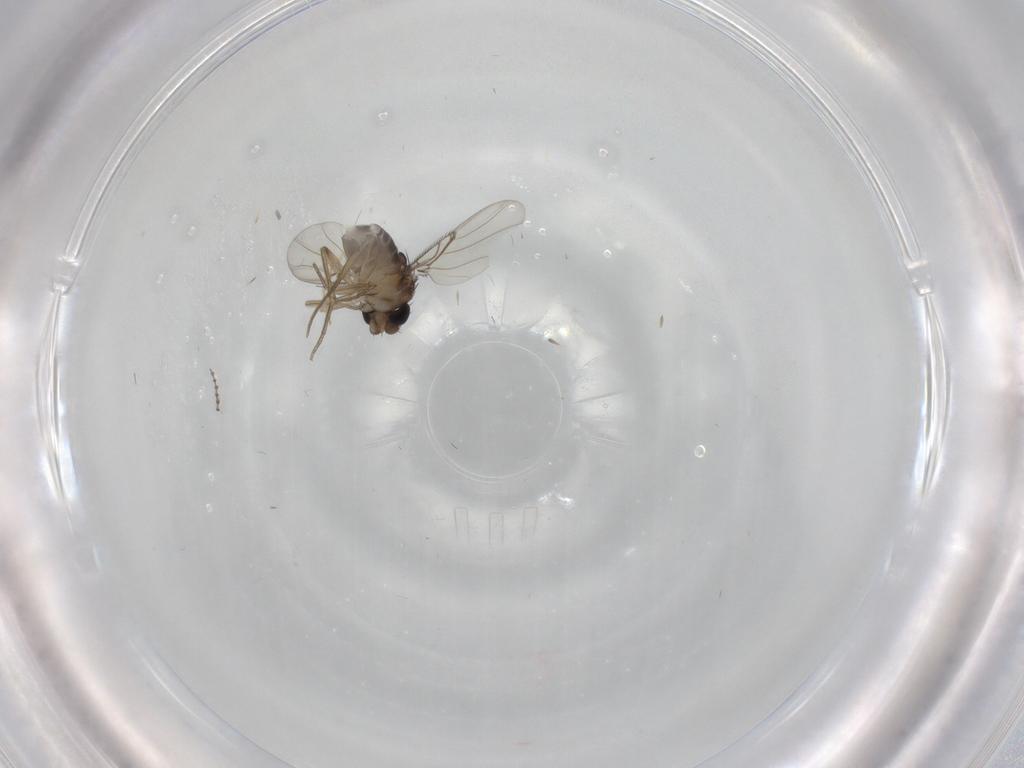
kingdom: Animalia
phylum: Arthropoda
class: Insecta
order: Diptera
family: Chironomidae
